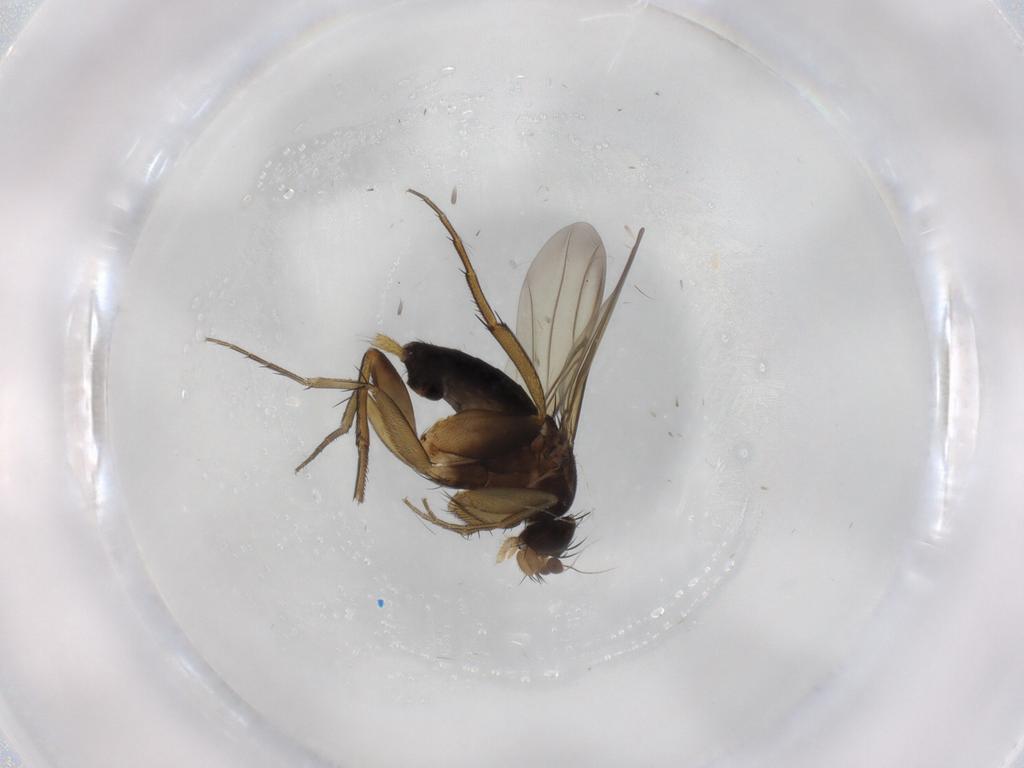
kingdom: Animalia
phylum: Arthropoda
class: Insecta
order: Diptera
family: Phoridae
